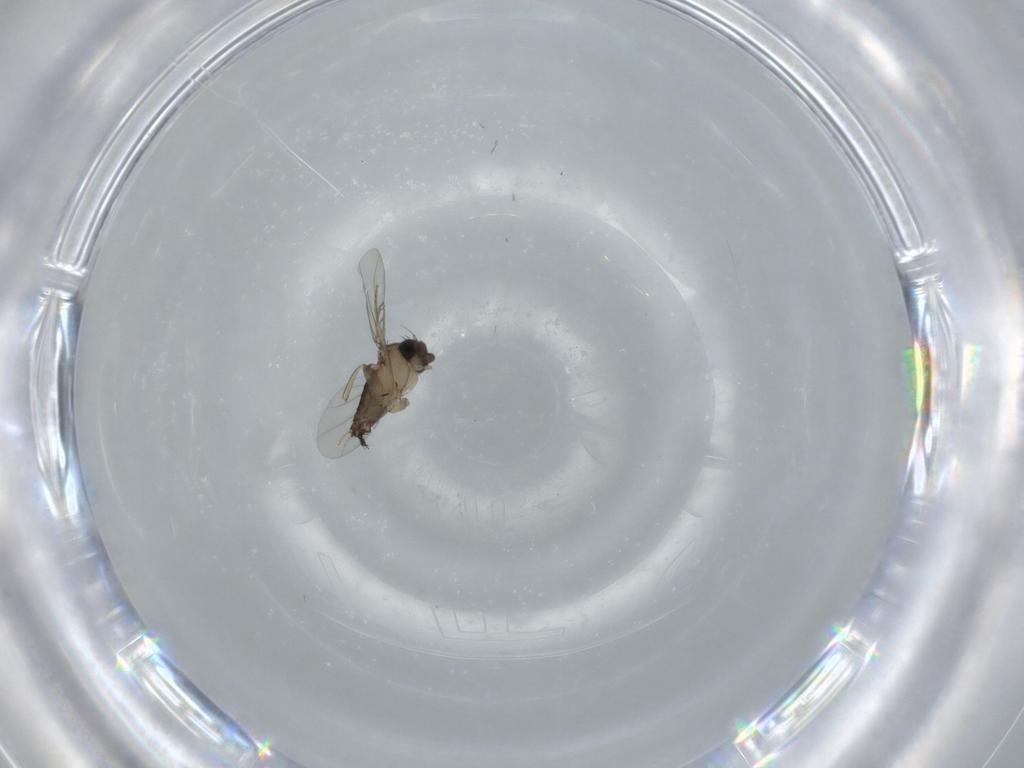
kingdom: Animalia
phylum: Arthropoda
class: Insecta
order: Diptera
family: Phoridae
